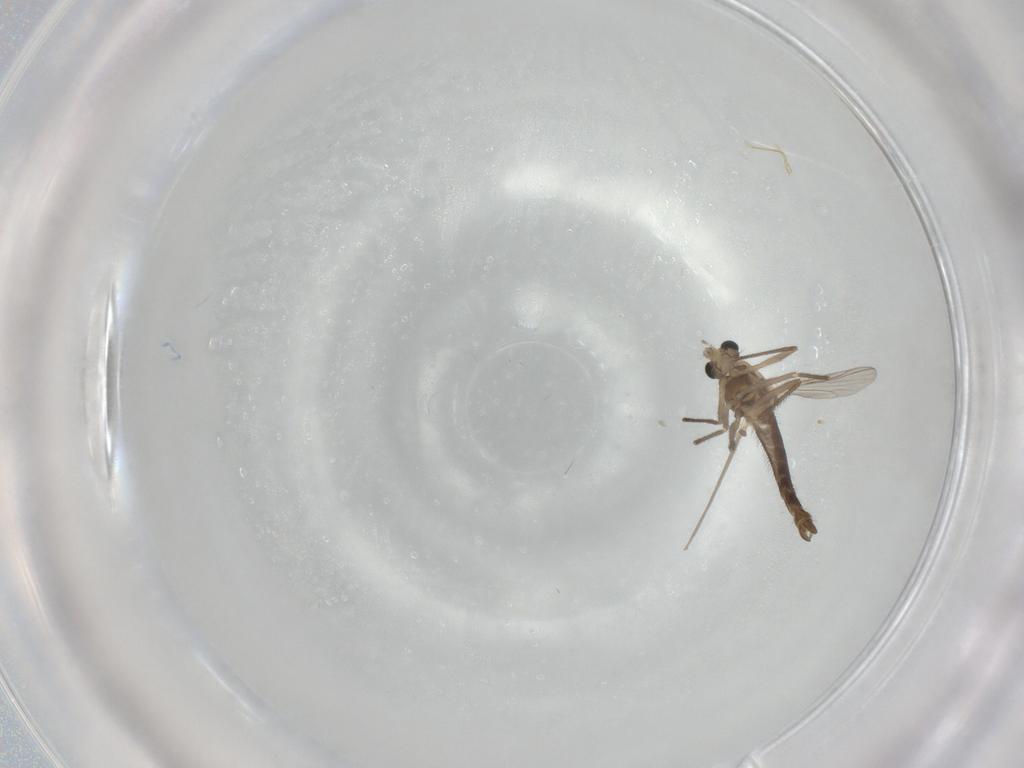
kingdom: Animalia
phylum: Arthropoda
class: Insecta
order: Diptera
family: Chironomidae
